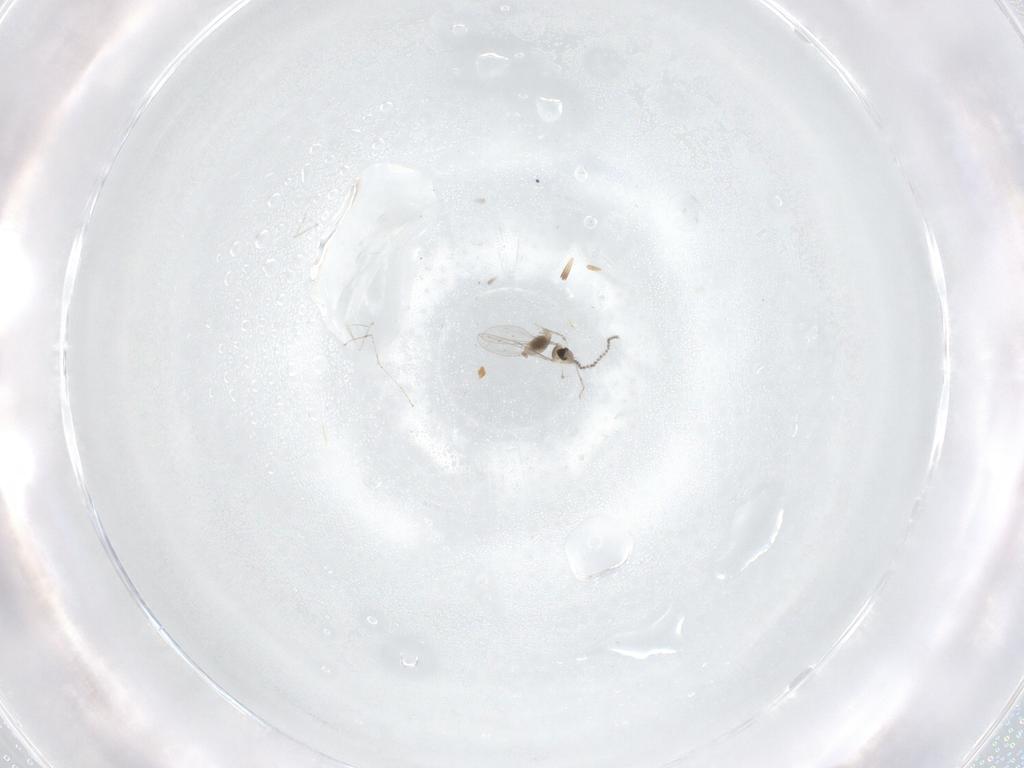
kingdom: Animalia
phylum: Arthropoda
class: Insecta
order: Diptera
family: Cecidomyiidae
